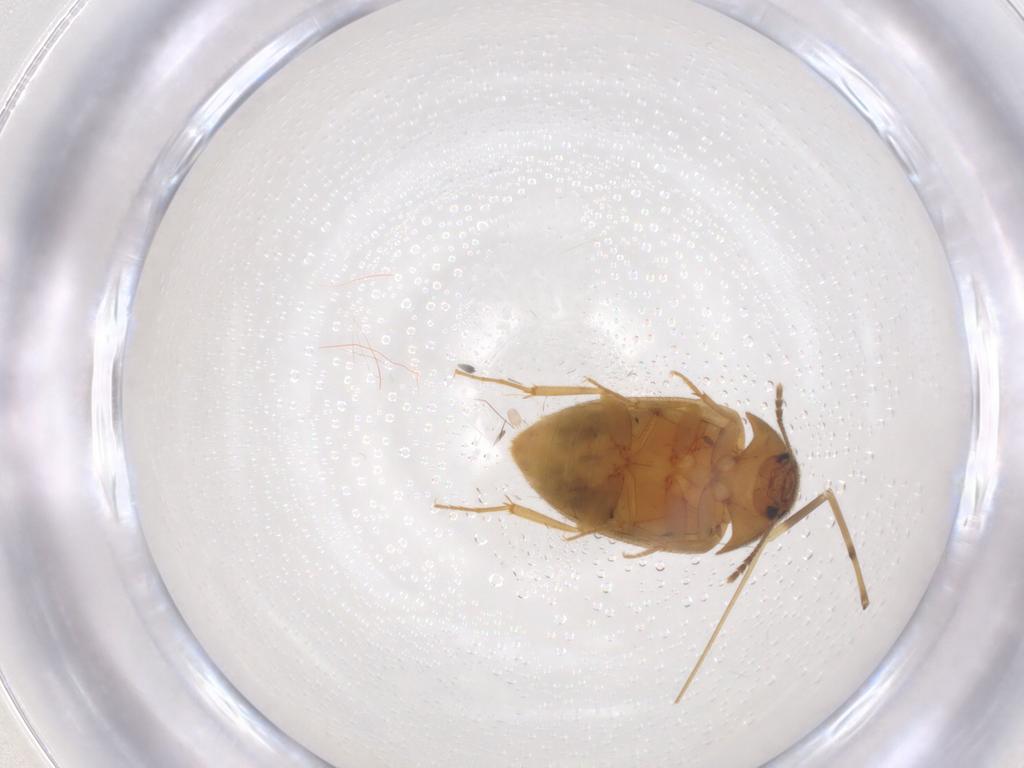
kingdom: Animalia
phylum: Arthropoda
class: Insecta
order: Coleoptera
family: Mycetophagidae
